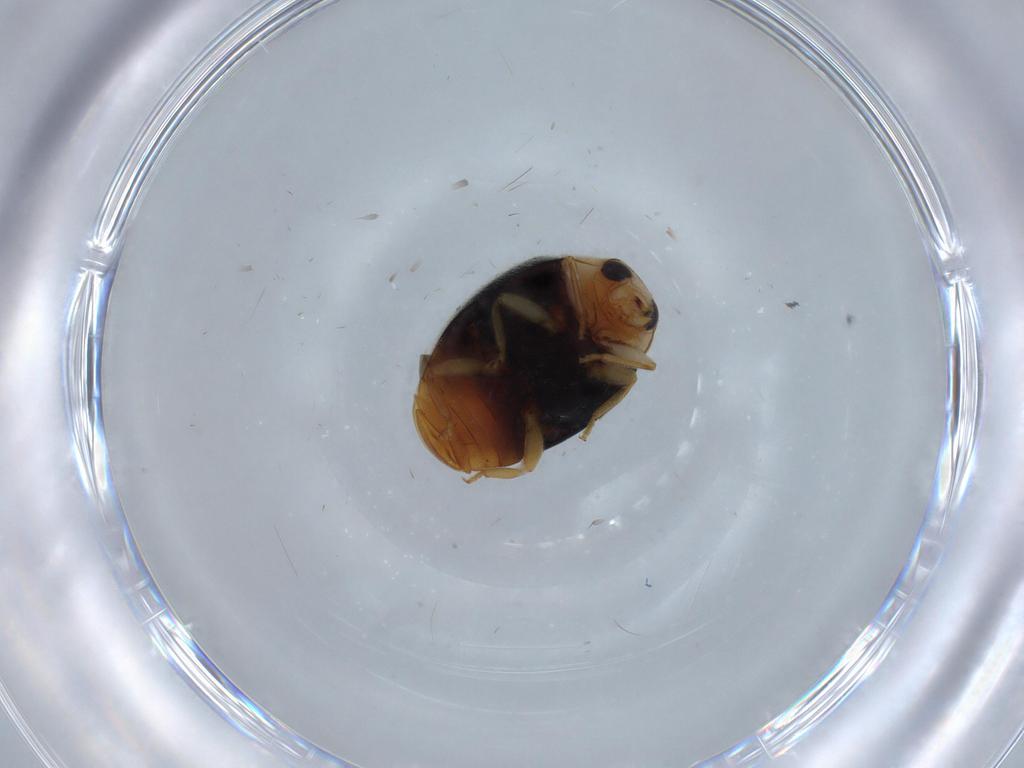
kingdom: Animalia
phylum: Arthropoda
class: Insecta
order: Coleoptera
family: Coccinellidae
